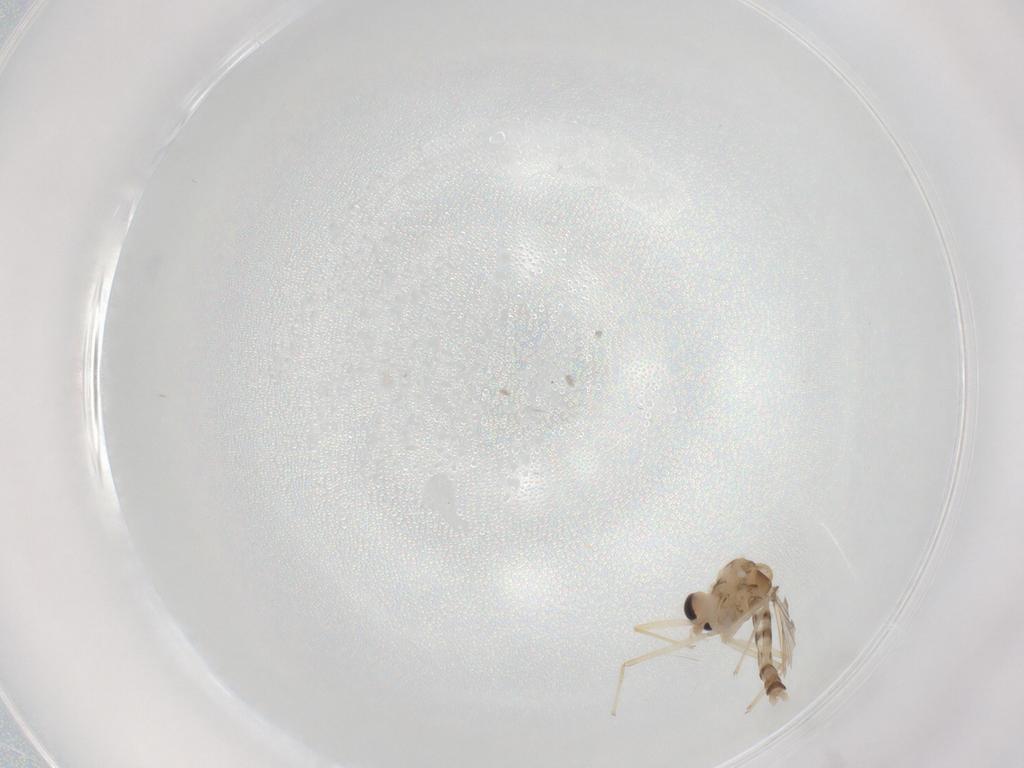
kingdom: Animalia
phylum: Arthropoda
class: Insecta
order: Diptera
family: Chironomidae
